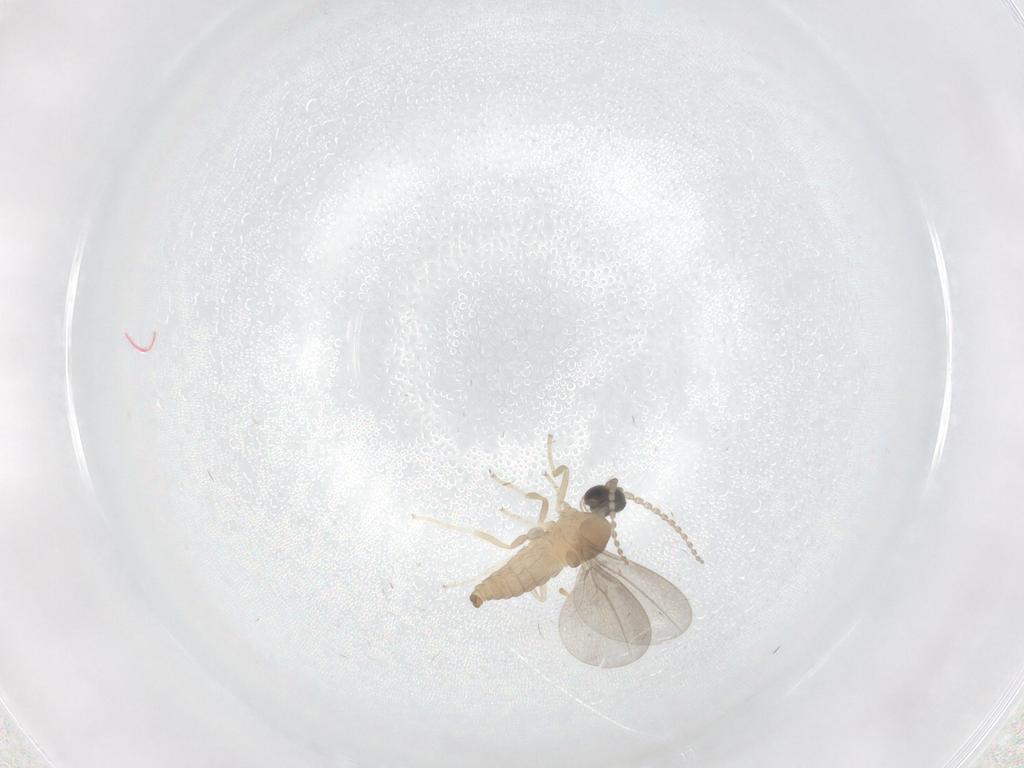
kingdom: Animalia
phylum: Arthropoda
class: Insecta
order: Diptera
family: Cecidomyiidae
